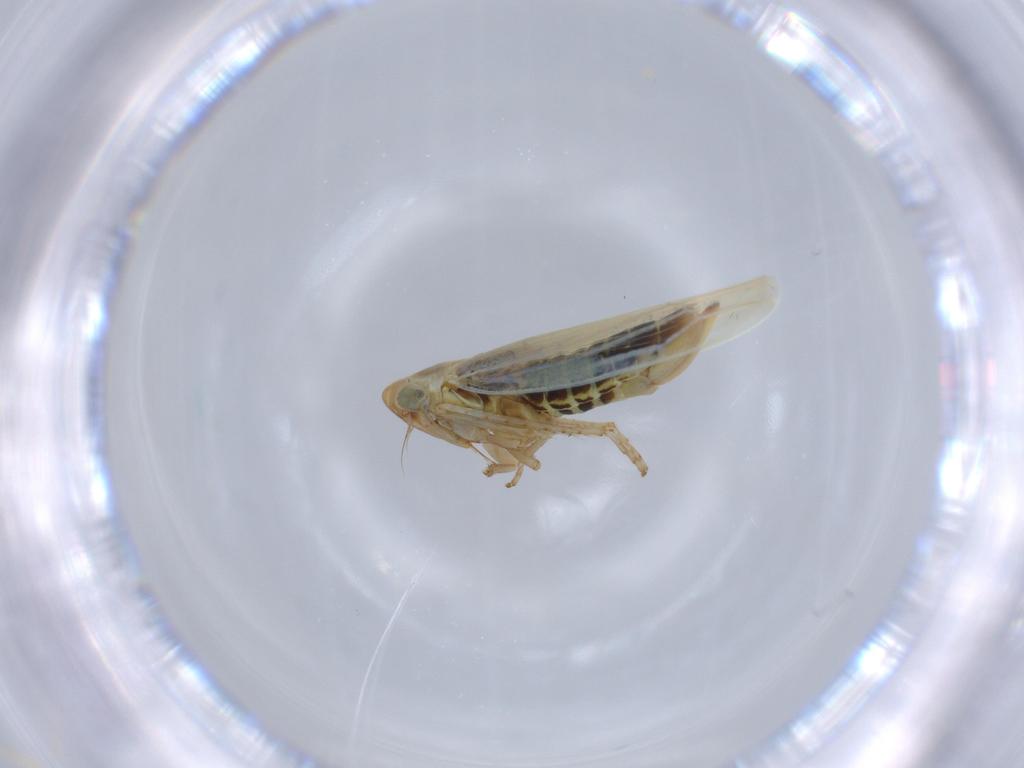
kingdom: Animalia
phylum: Arthropoda
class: Insecta
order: Hemiptera
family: Cicadellidae
